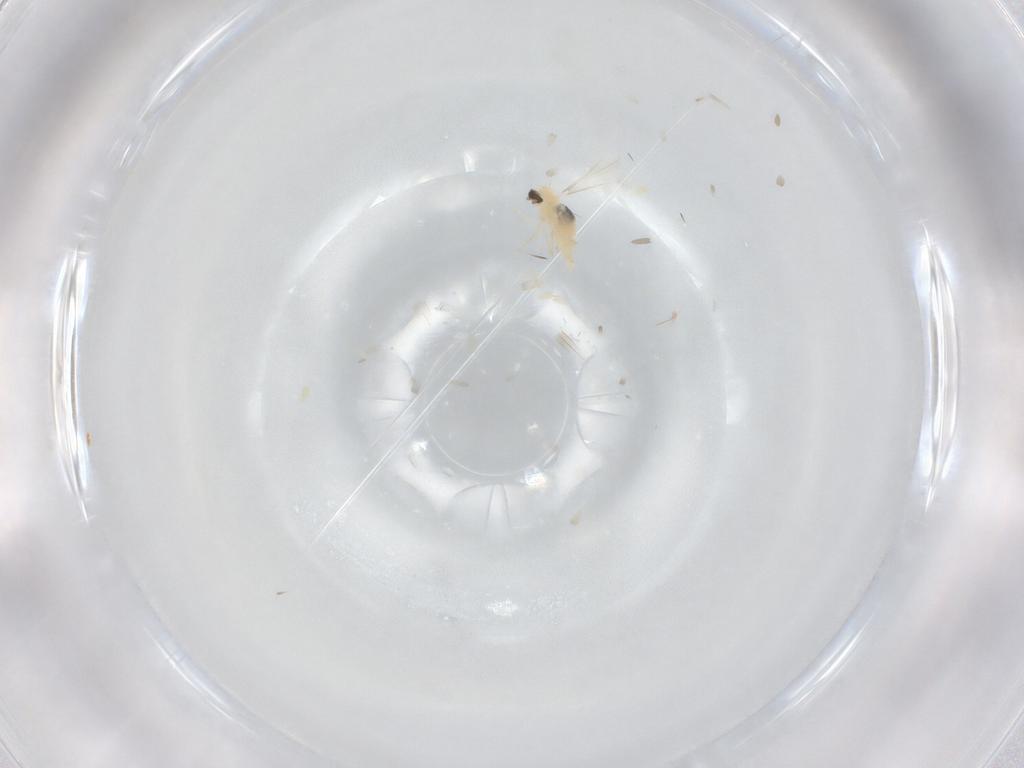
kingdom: Animalia
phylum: Arthropoda
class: Insecta
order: Diptera
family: Cecidomyiidae
